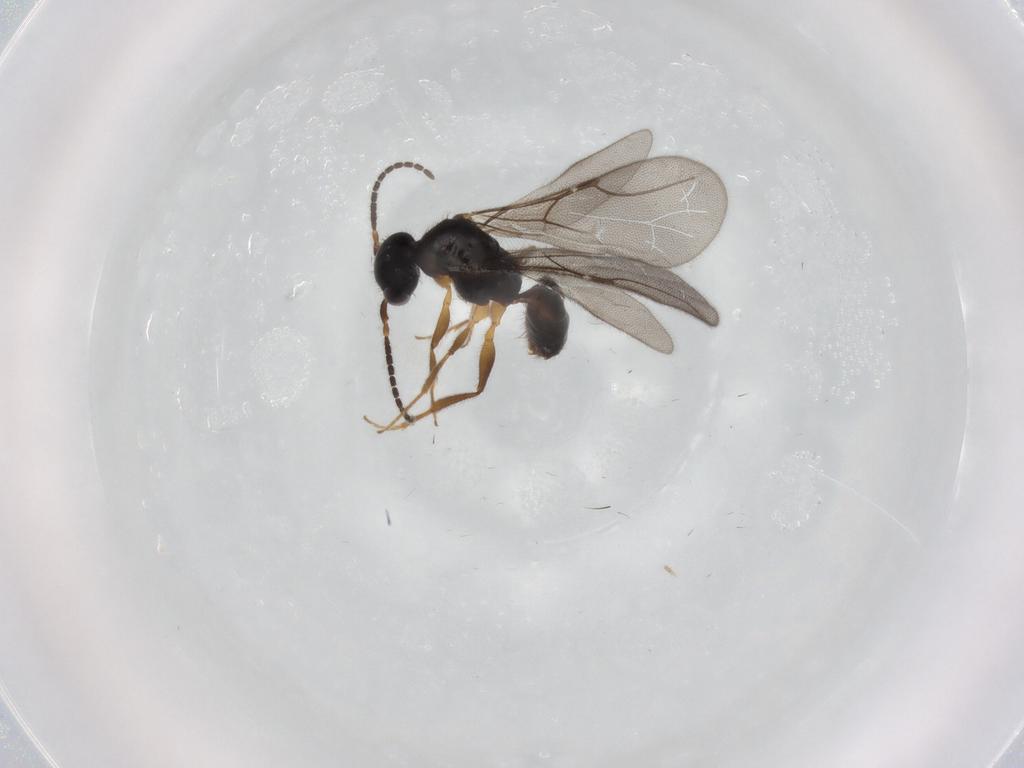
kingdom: Animalia
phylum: Arthropoda
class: Insecta
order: Hymenoptera
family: Bethylidae
